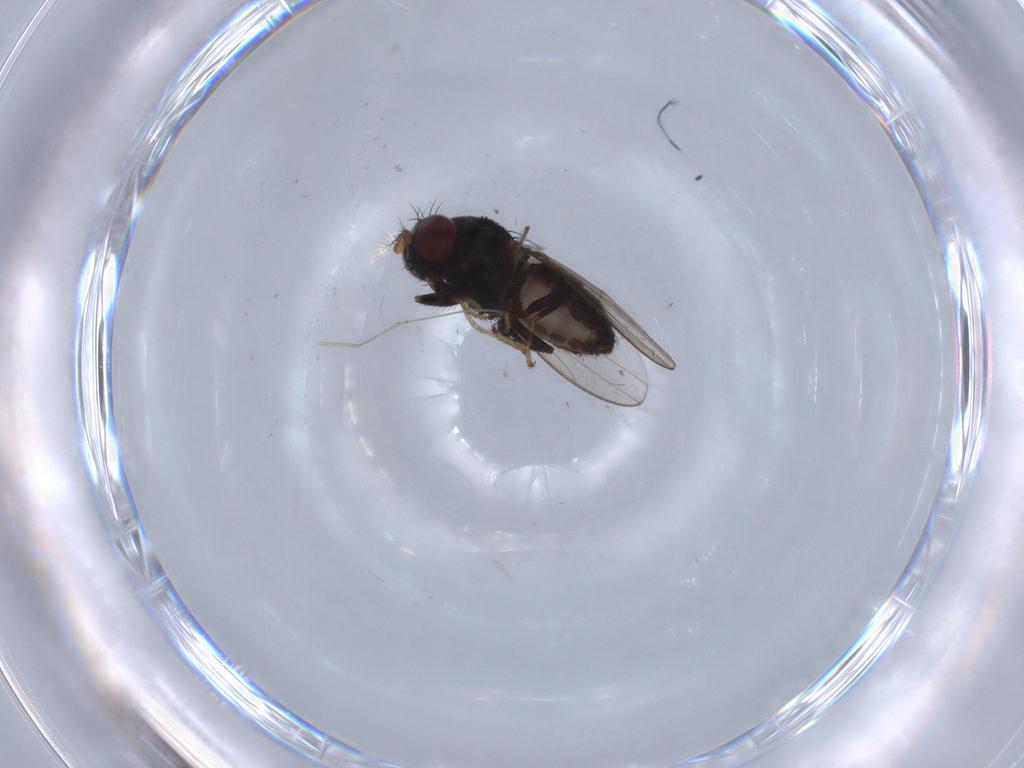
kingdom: Animalia
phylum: Arthropoda
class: Insecta
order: Diptera
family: Ephydridae
